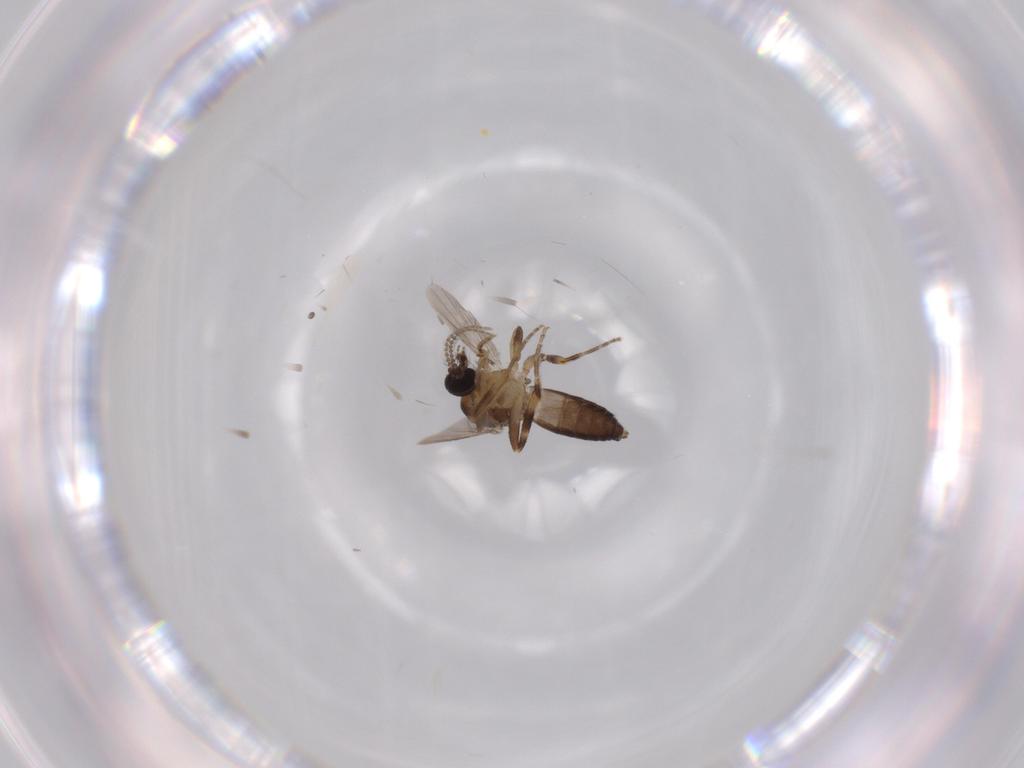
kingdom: Animalia
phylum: Arthropoda
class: Insecta
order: Diptera
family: Ceratopogonidae
